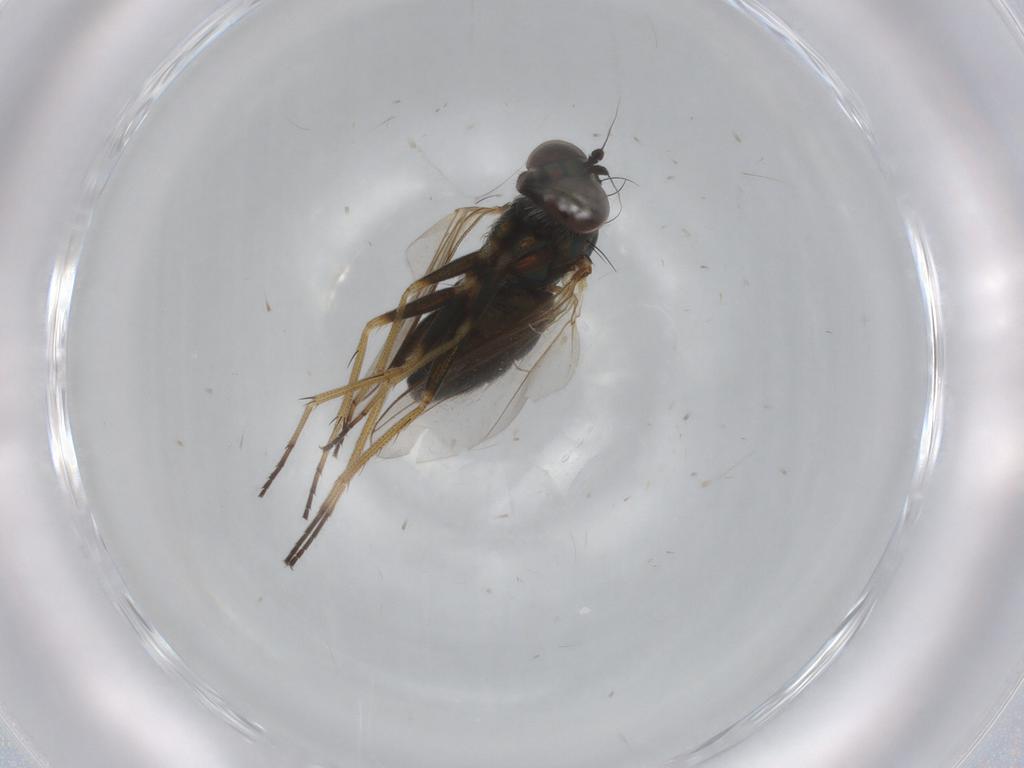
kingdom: Animalia
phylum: Arthropoda
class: Insecta
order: Diptera
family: Dolichopodidae
